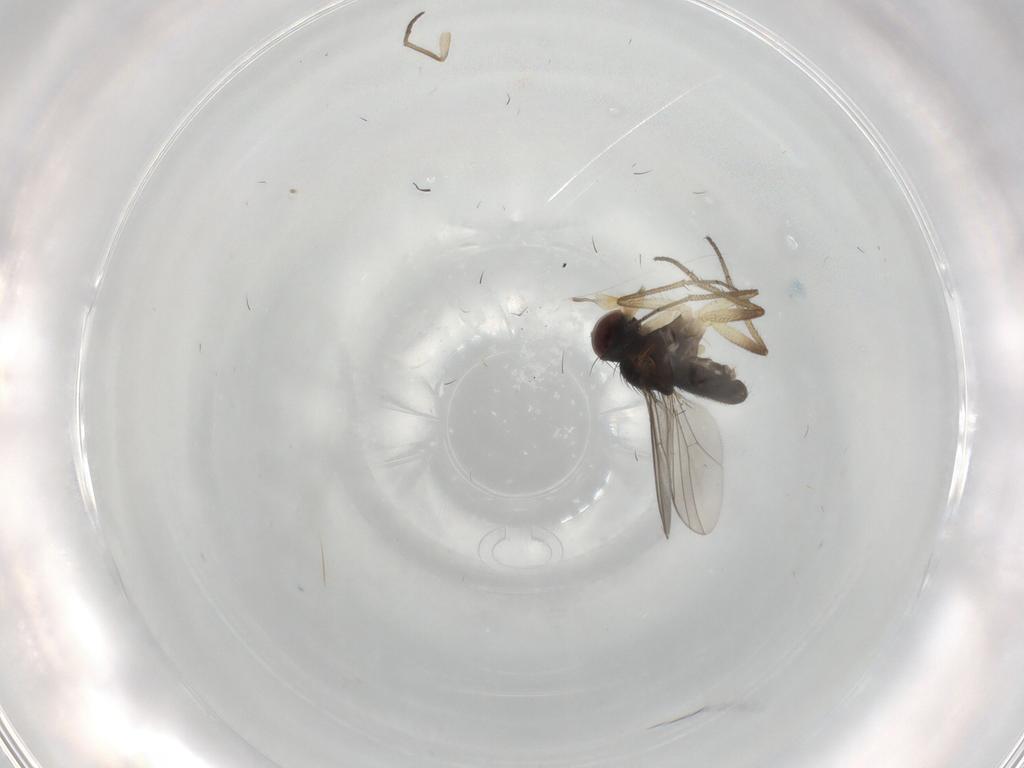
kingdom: Animalia
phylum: Arthropoda
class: Insecta
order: Diptera
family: Dolichopodidae
